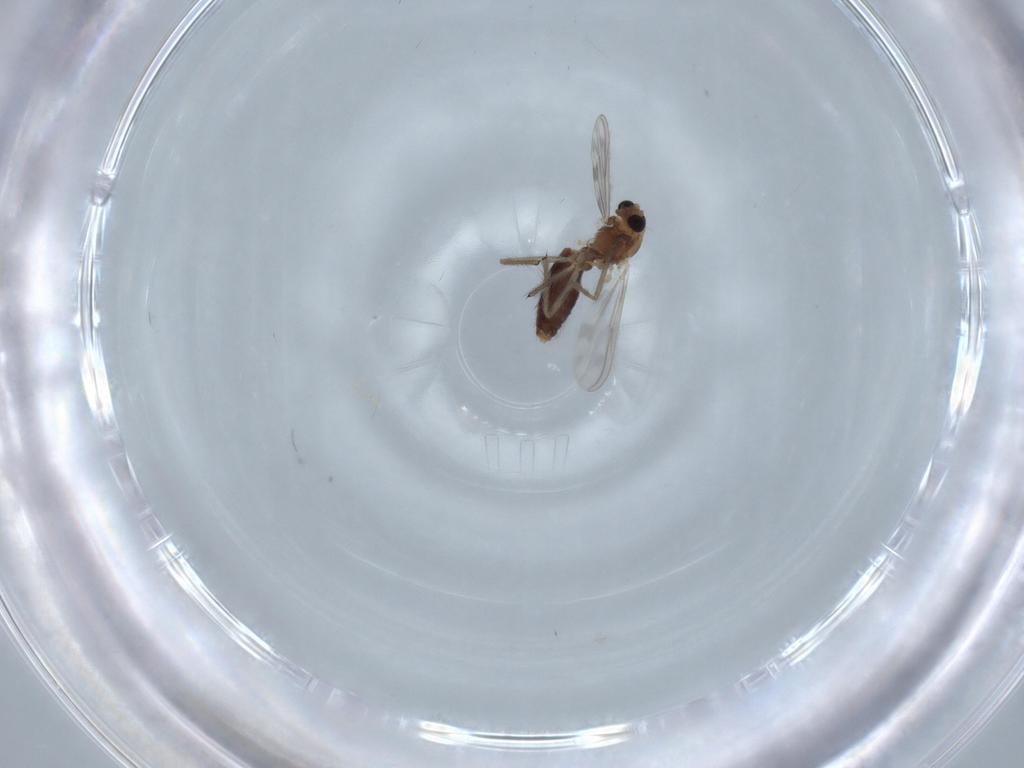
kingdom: Animalia
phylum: Arthropoda
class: Insecta
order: Diptera
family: Chironomidae
